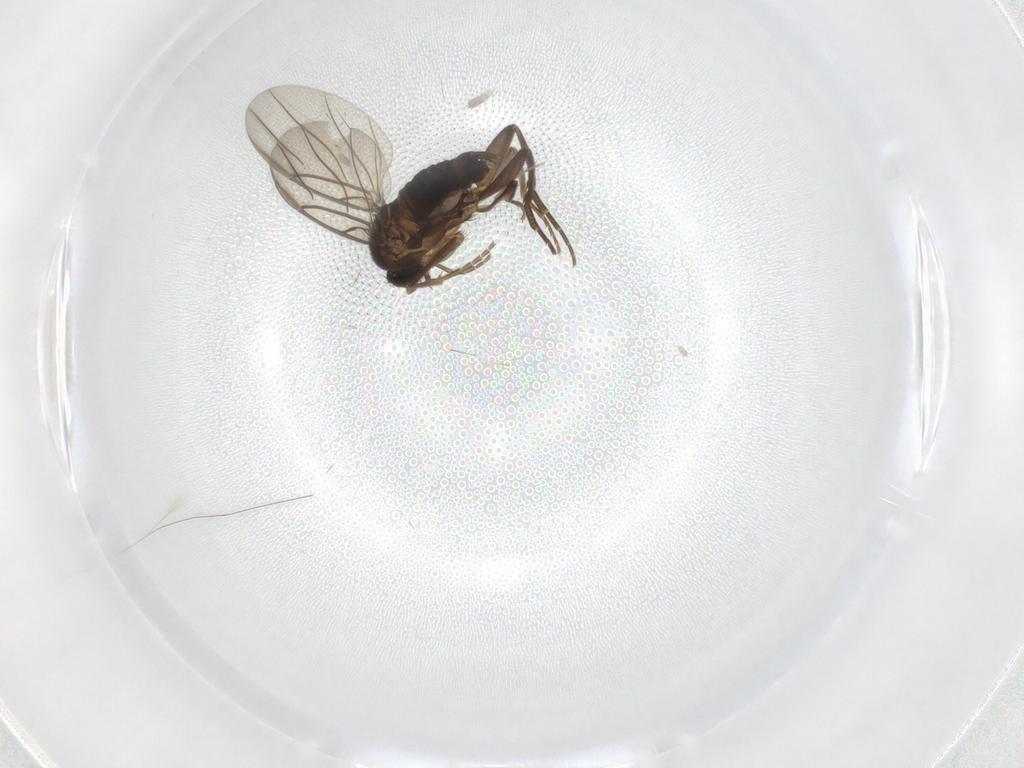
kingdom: Animalia
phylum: Arthropoda
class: Insecta
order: Diptera
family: Chironomidae
